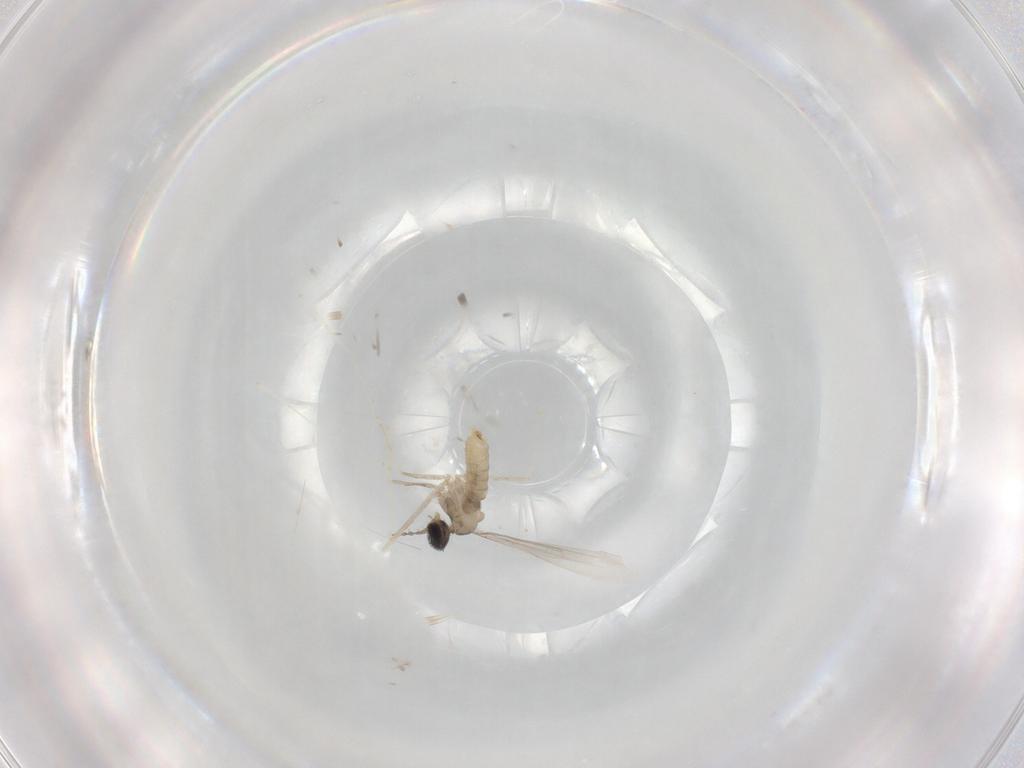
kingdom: Animalia
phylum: Arthropoda
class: Insecta
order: Diptera
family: Cecidomyiidae
